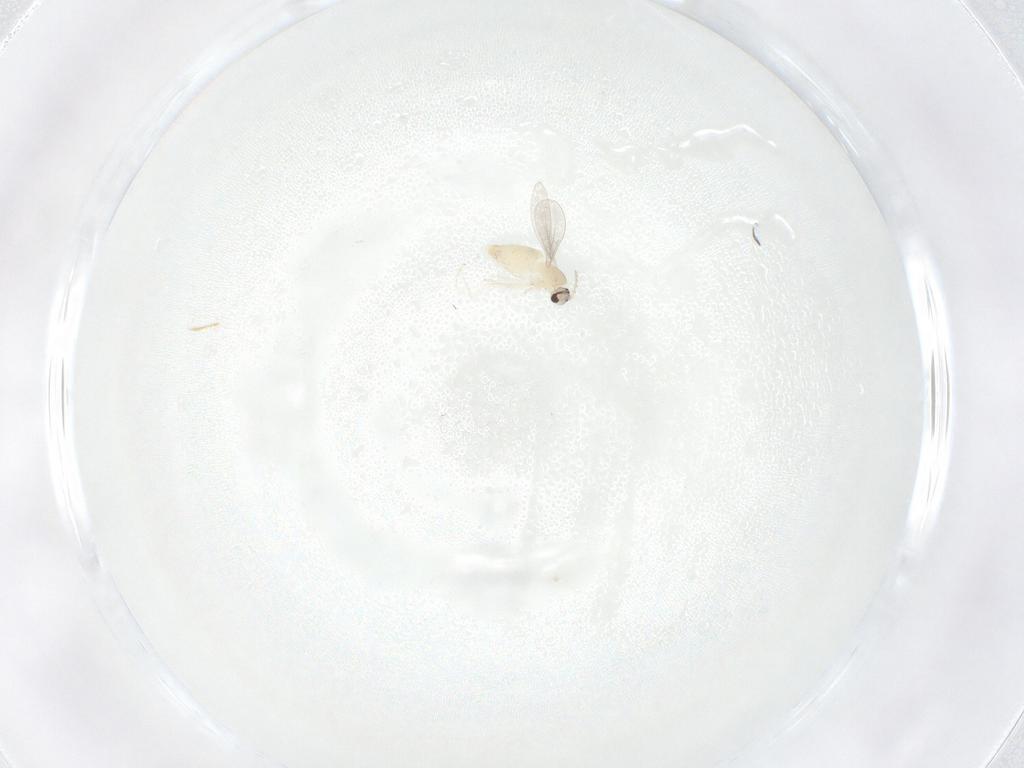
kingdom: Animalia
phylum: Arthropoda
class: Insecta
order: Diptera
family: Cecidomyiidae
